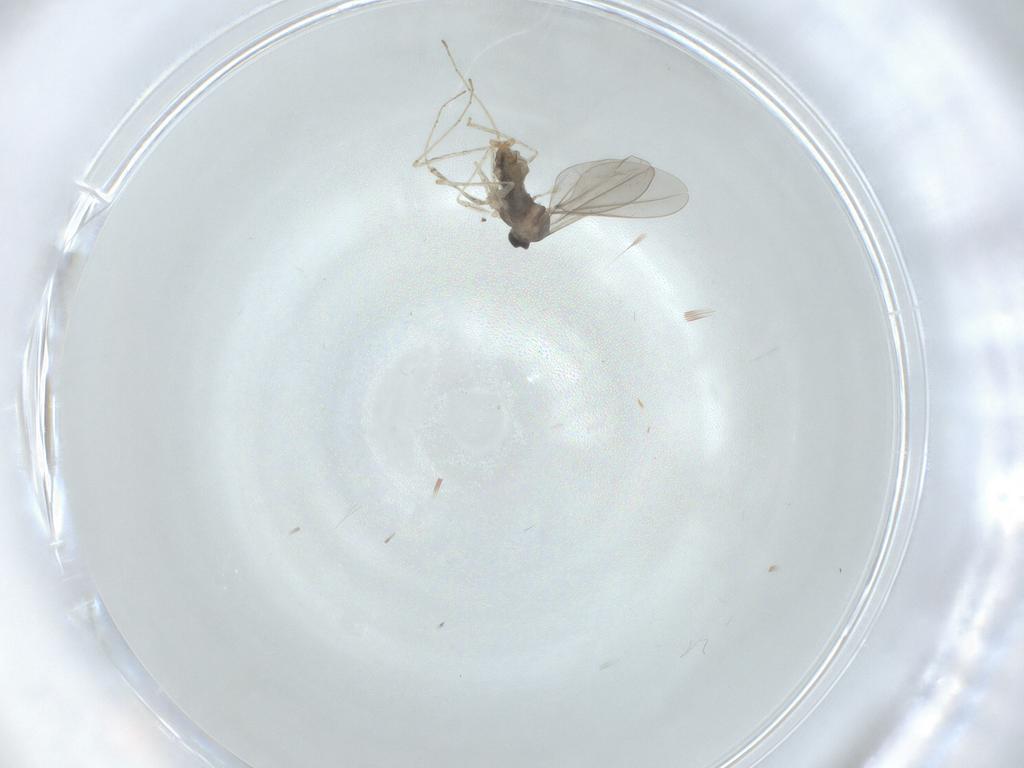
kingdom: Animalia
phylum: Arthropoda
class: Insecta
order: Diptera
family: Cecidomyiidae
